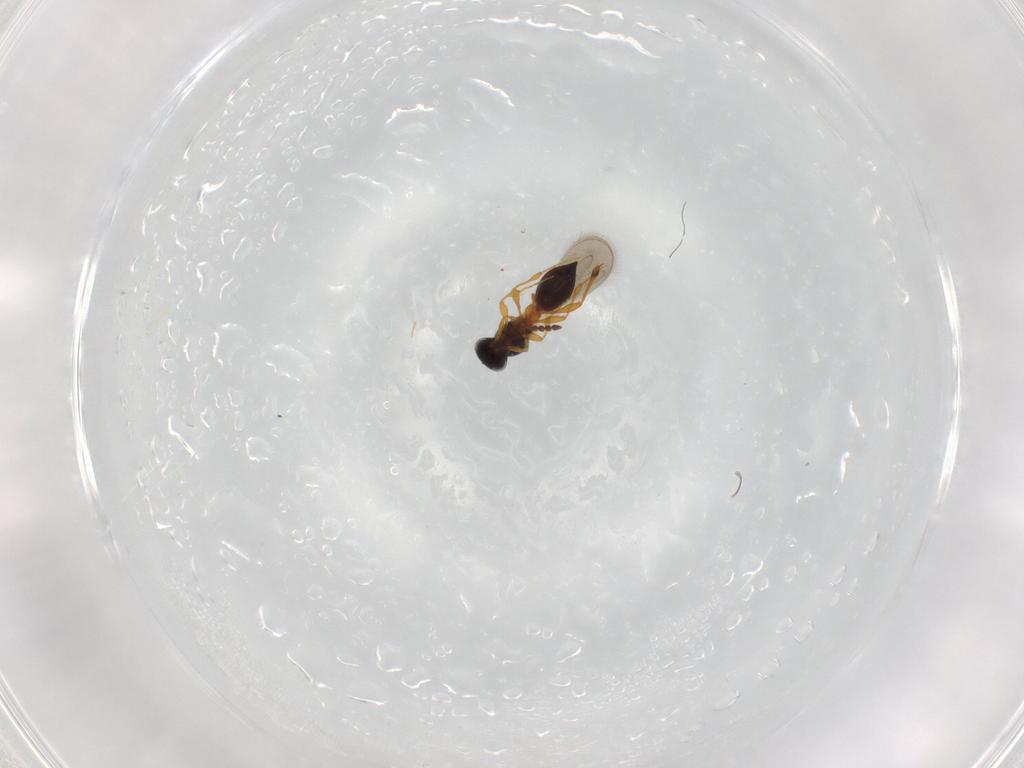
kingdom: Animalia
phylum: Arthropoda
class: Insecta
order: Hymenoptera
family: Platygastridae
